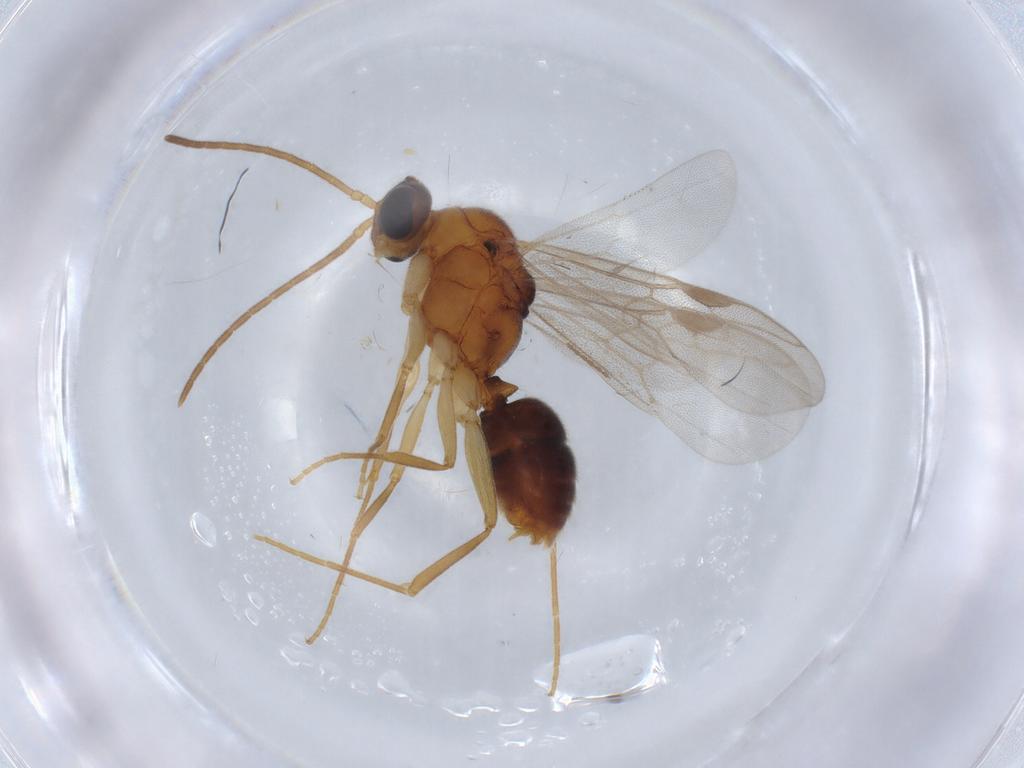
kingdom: Animalia
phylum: Arthropoda
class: Insecta
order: Hymenoptera
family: Formicidae
